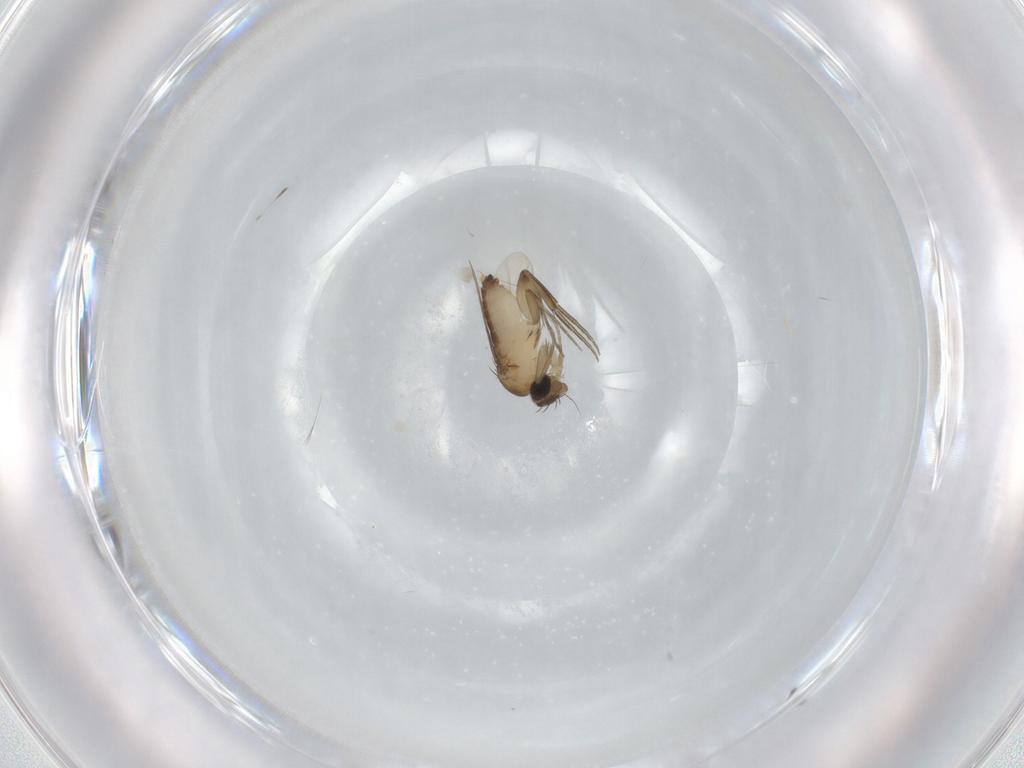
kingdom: Animalia
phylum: Arthropoda
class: Insecta
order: Diptera
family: Phoridae
